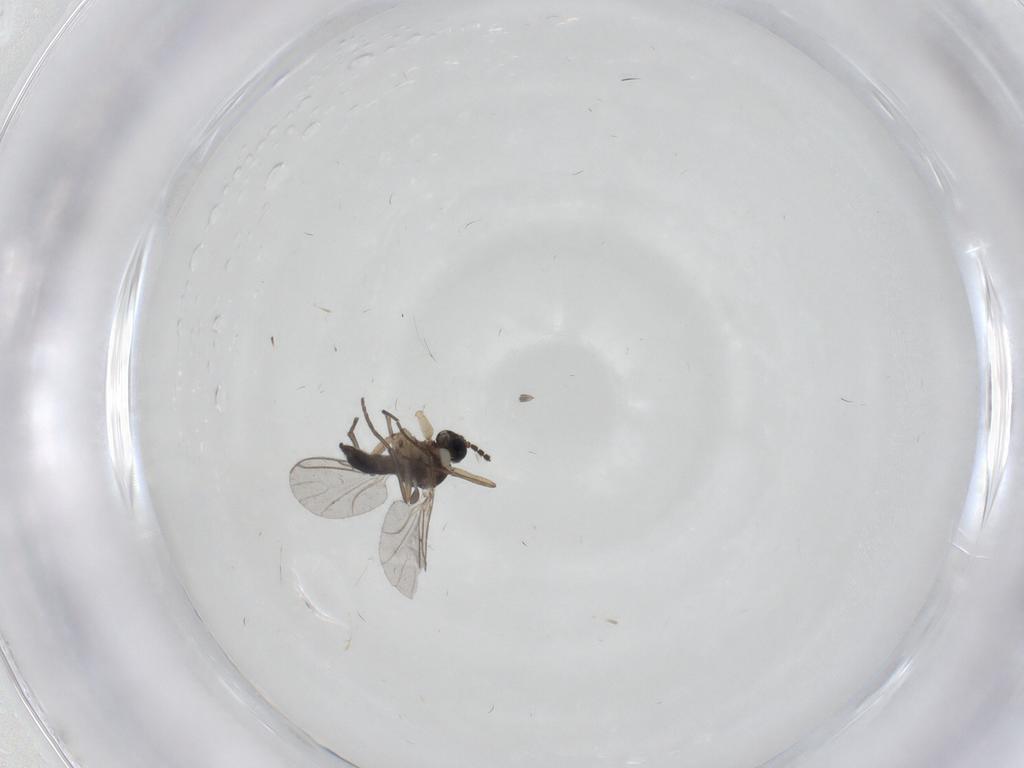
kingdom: Animalia
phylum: Arthropoda
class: Insecta
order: Diptera
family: Sciaridae
